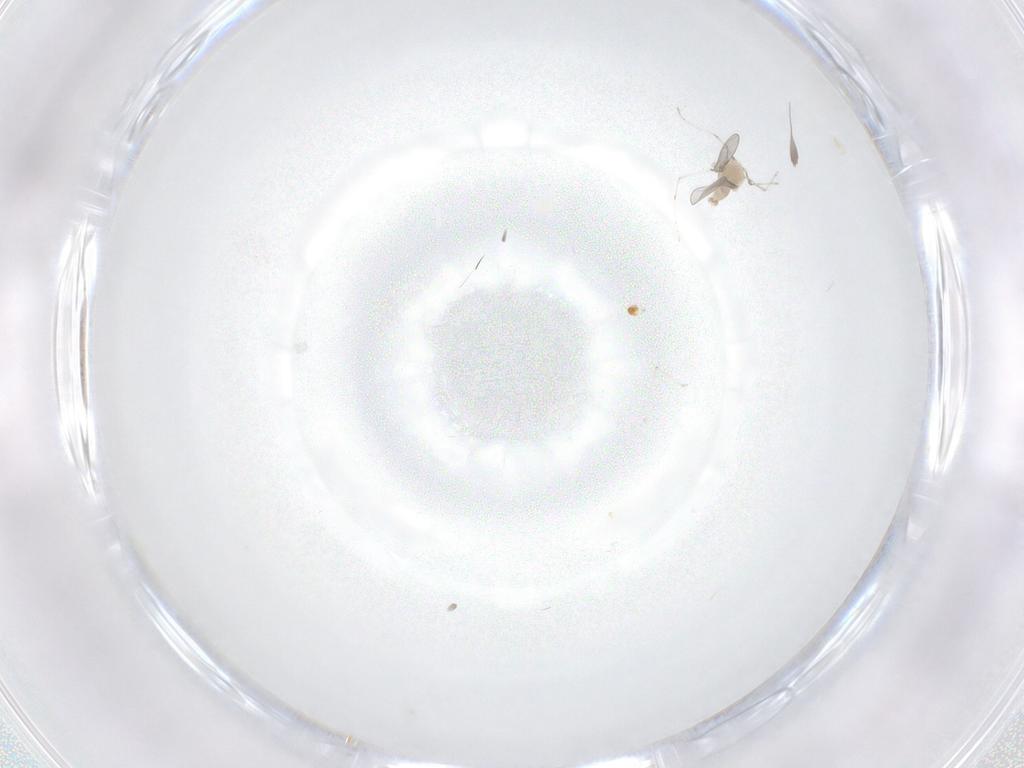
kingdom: Animalia
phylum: Arthropoda
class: Insecta
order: Diptera
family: Cecidomyiidae
